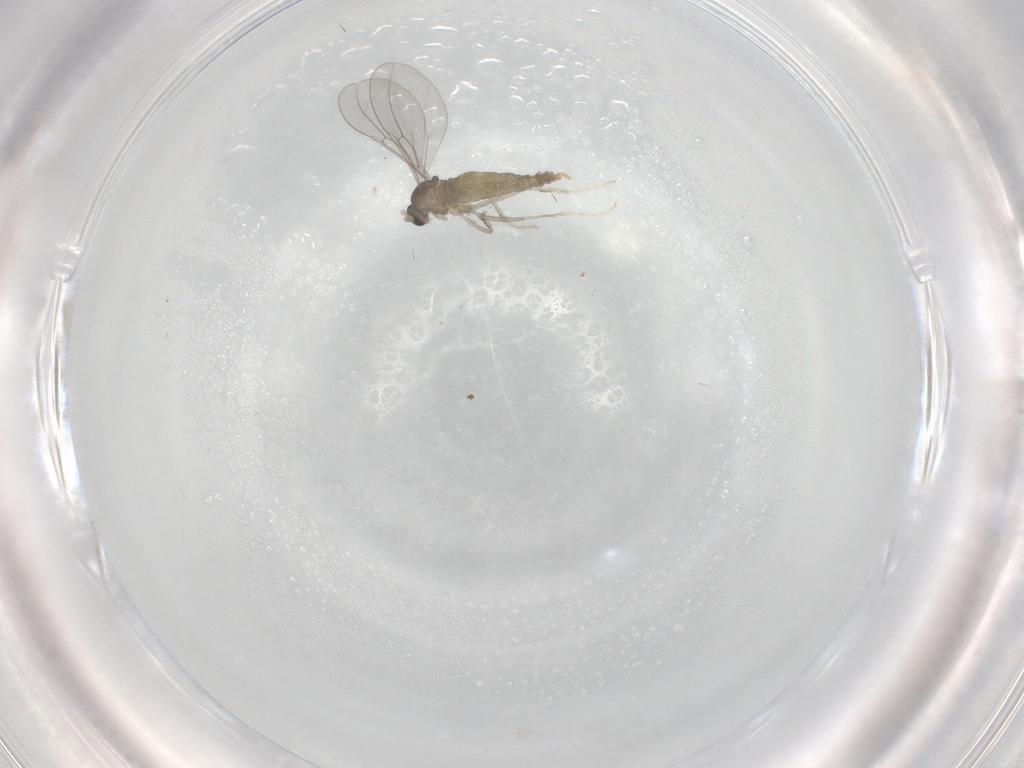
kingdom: Animalia
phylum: Arthropoda
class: Insecta
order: Diptera
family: Cecidomyiidae
